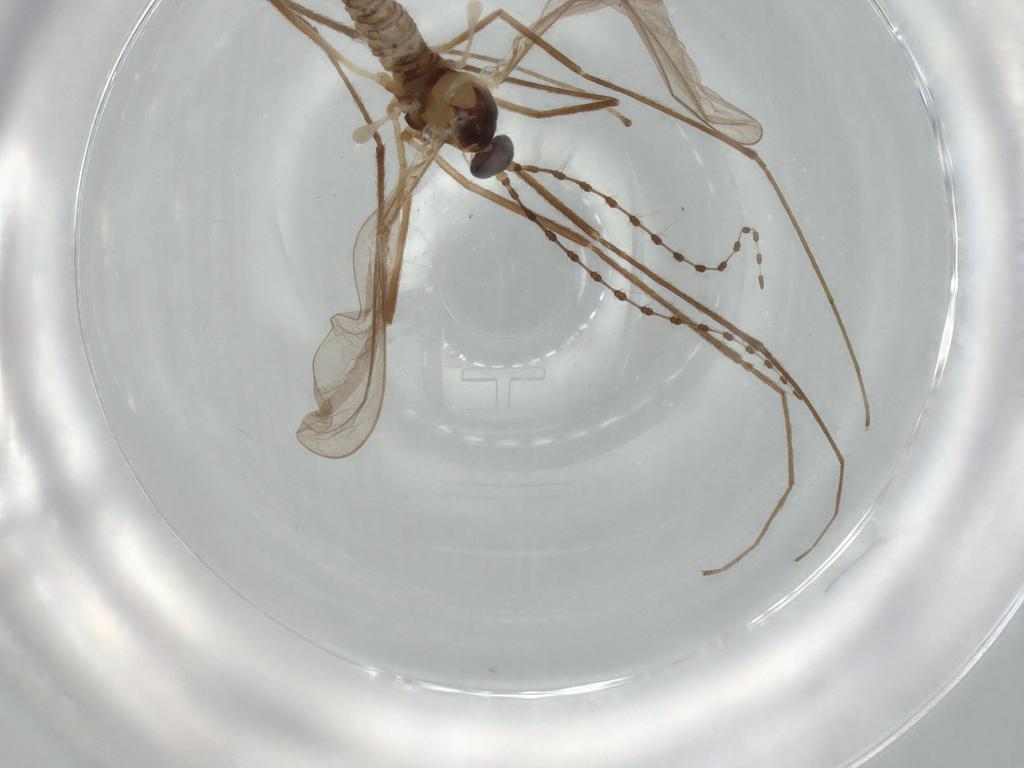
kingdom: Animalia
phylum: Arthropoda
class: Insecta
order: Diptera
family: Cecidomyiidae
